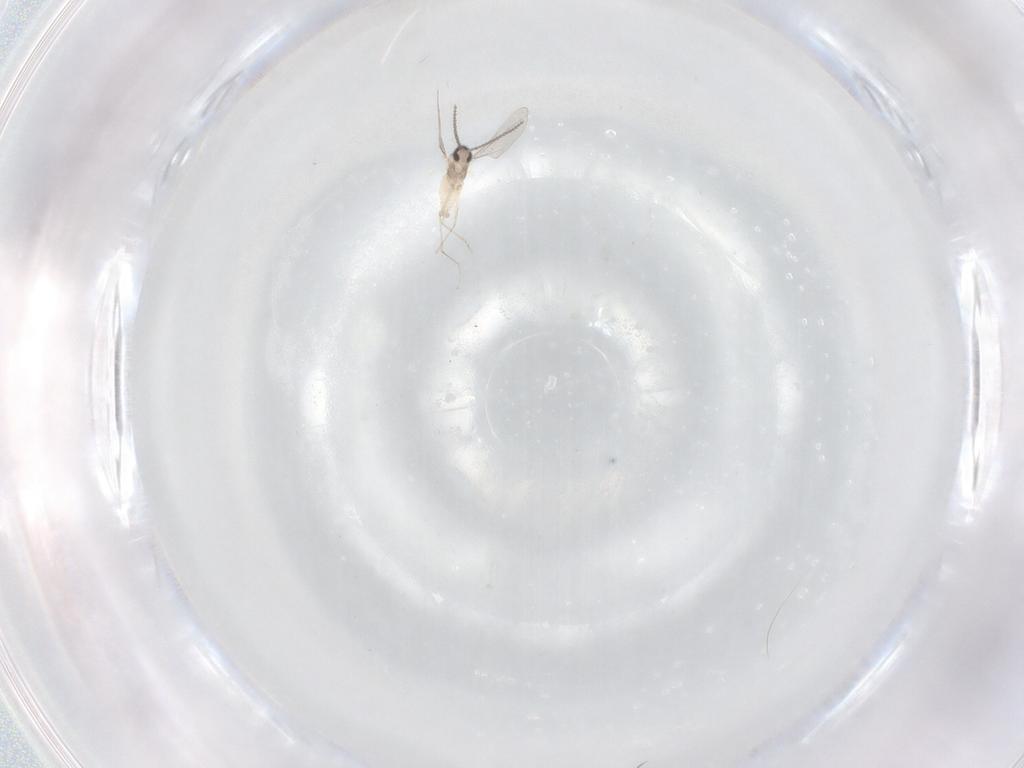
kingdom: Animalia
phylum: Arthropoda
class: Insecta
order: Diptera
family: Cecidomyiidae
